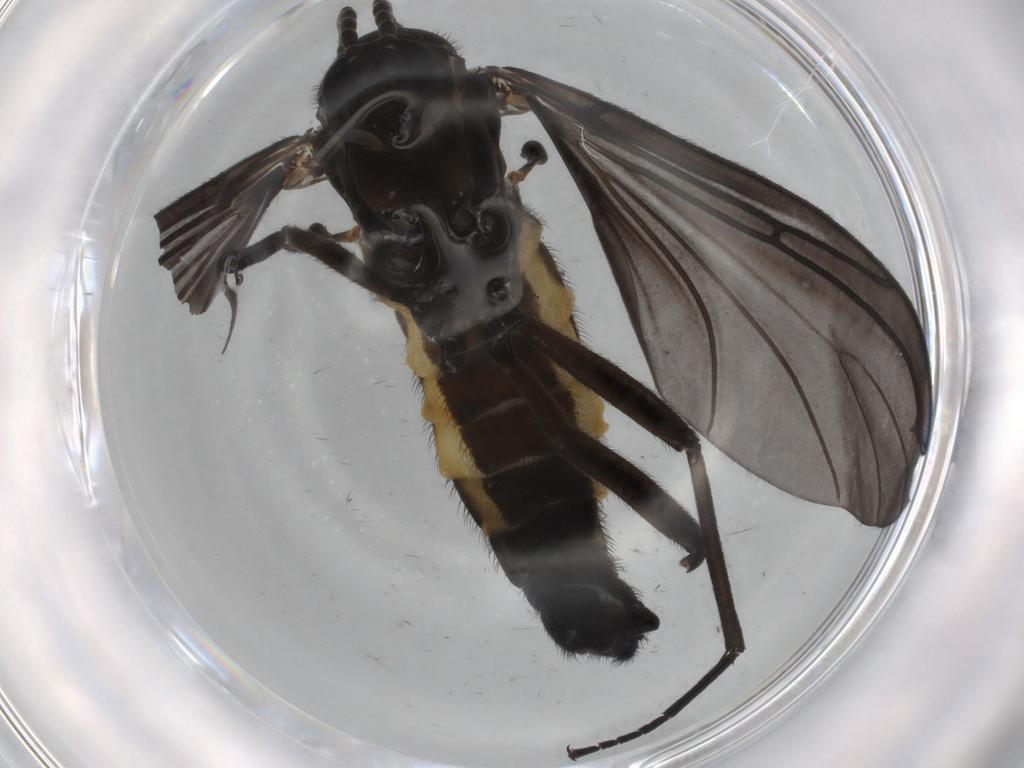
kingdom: Animalia
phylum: Arthropoda
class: Insecta
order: Diptera
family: Sciaridae
